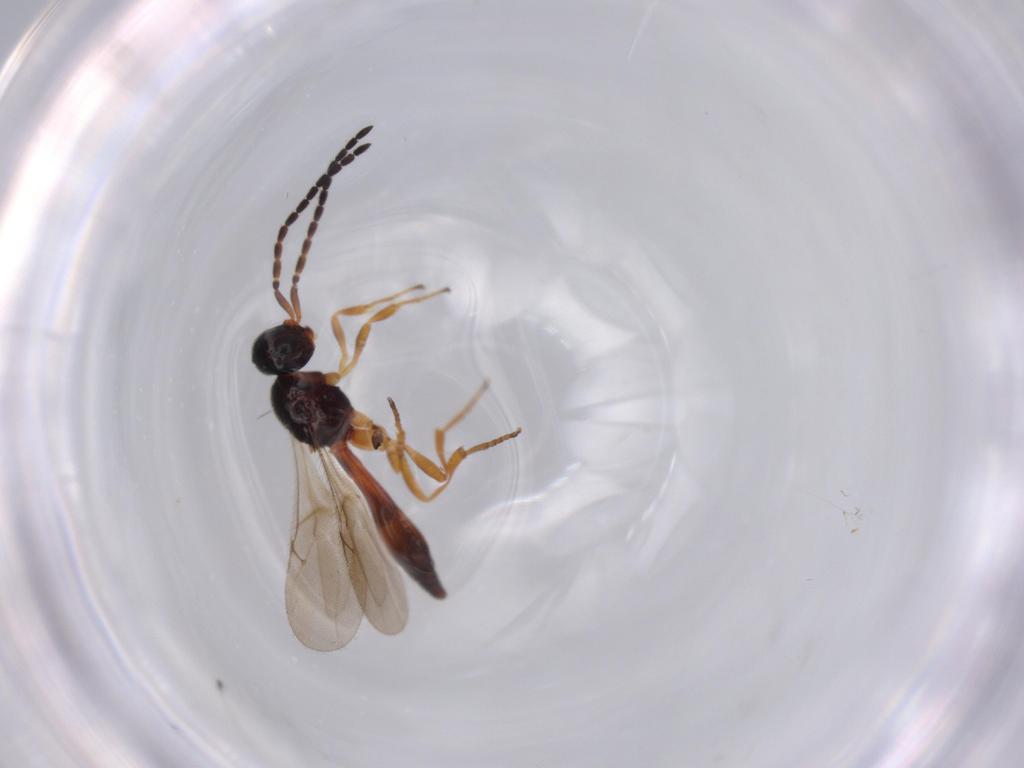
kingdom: Animalia
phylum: Arthropoda
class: Insecta
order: Hymenoptera
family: Scelionidae
